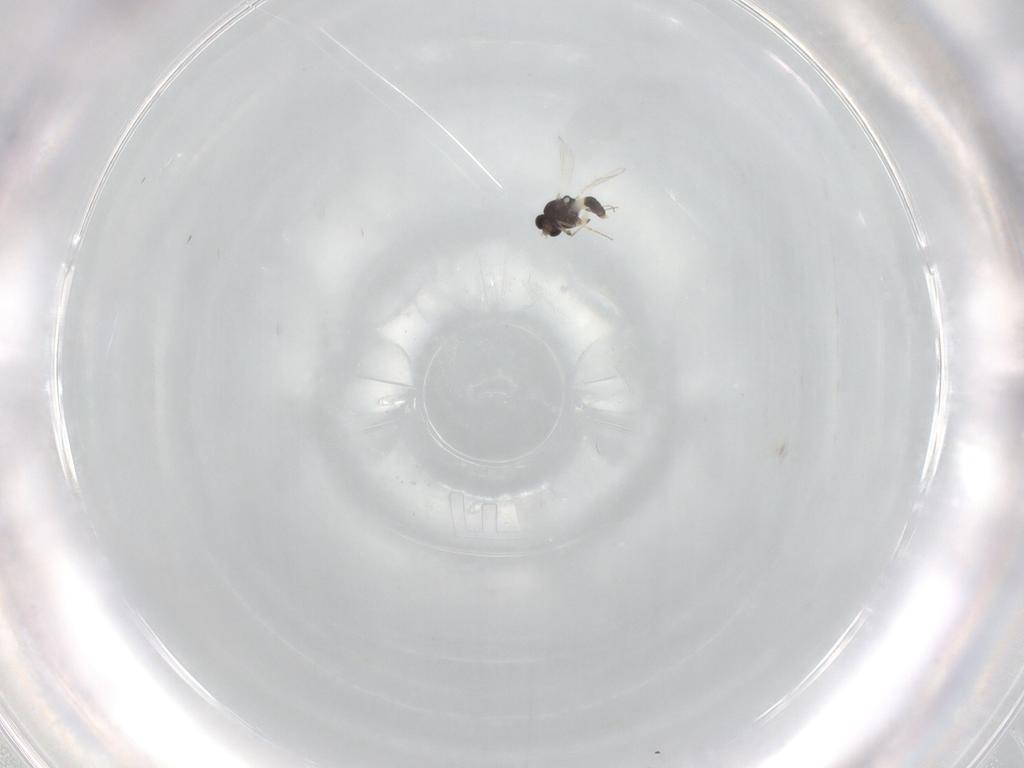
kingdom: Animalia
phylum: Arthropoda
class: Insecta
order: Diptera
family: Chironomidae
